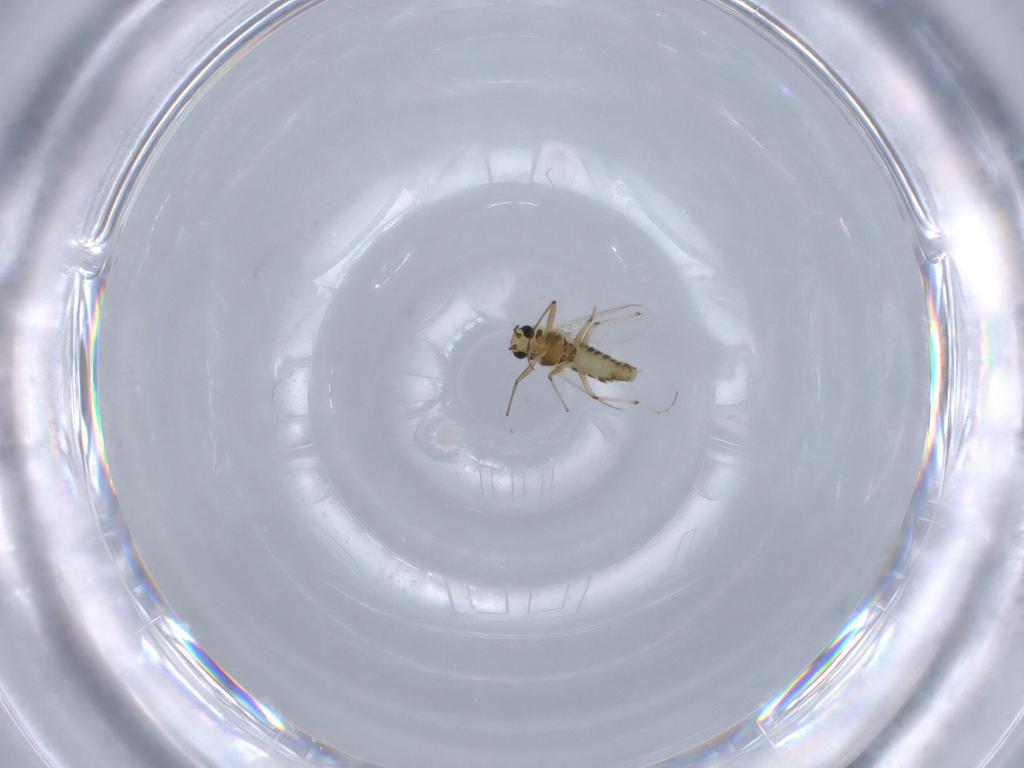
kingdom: Animalia
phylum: Arthropoda
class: Insecta
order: Diptera
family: Chironomidae
